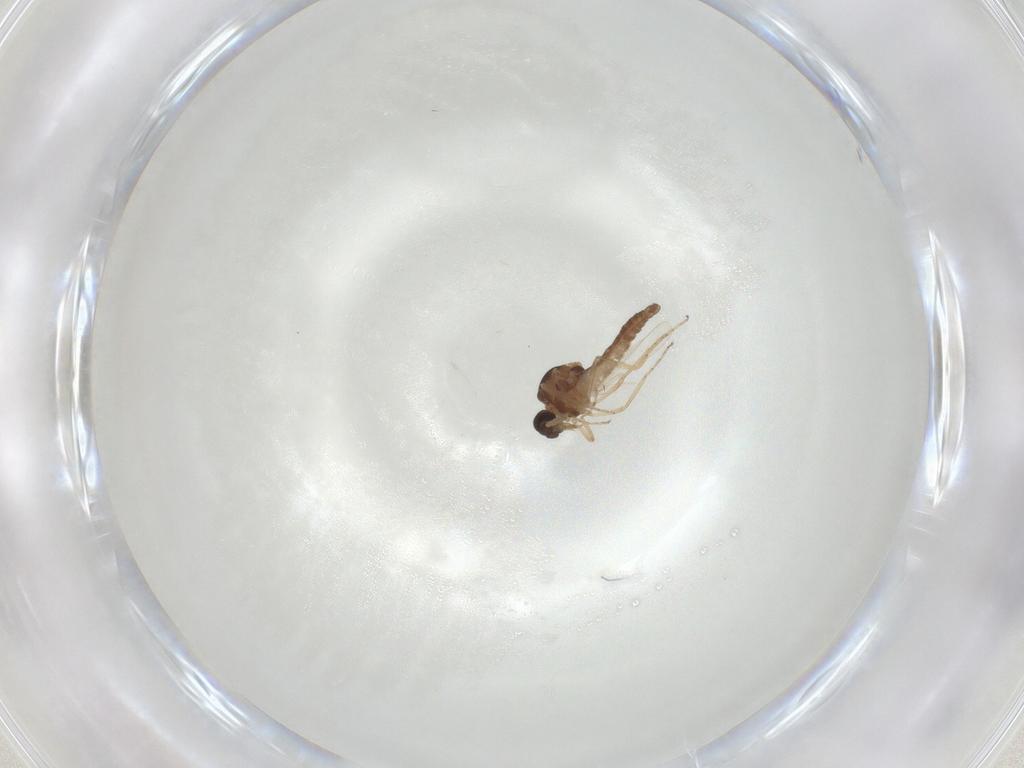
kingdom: Animalia
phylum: Arthropoda
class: Insecta
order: Diptera
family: Ceratopogonidae
